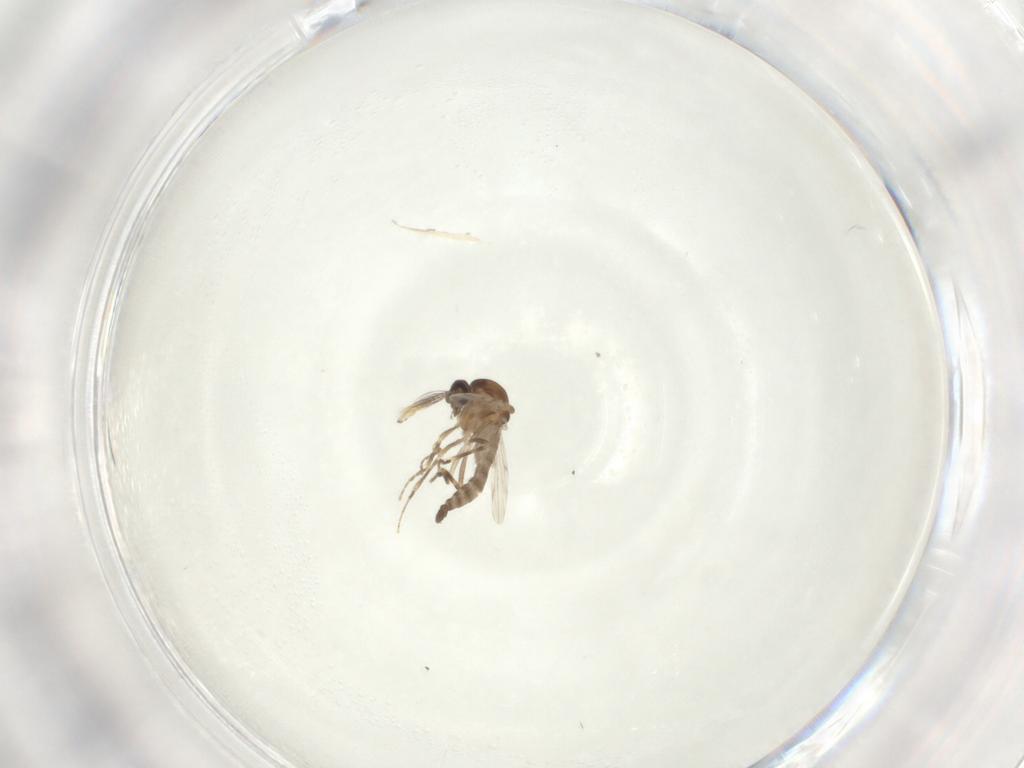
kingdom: Animalia
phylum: Arthropoda
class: Insecta
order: Diptera
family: Ceratopogonidae
